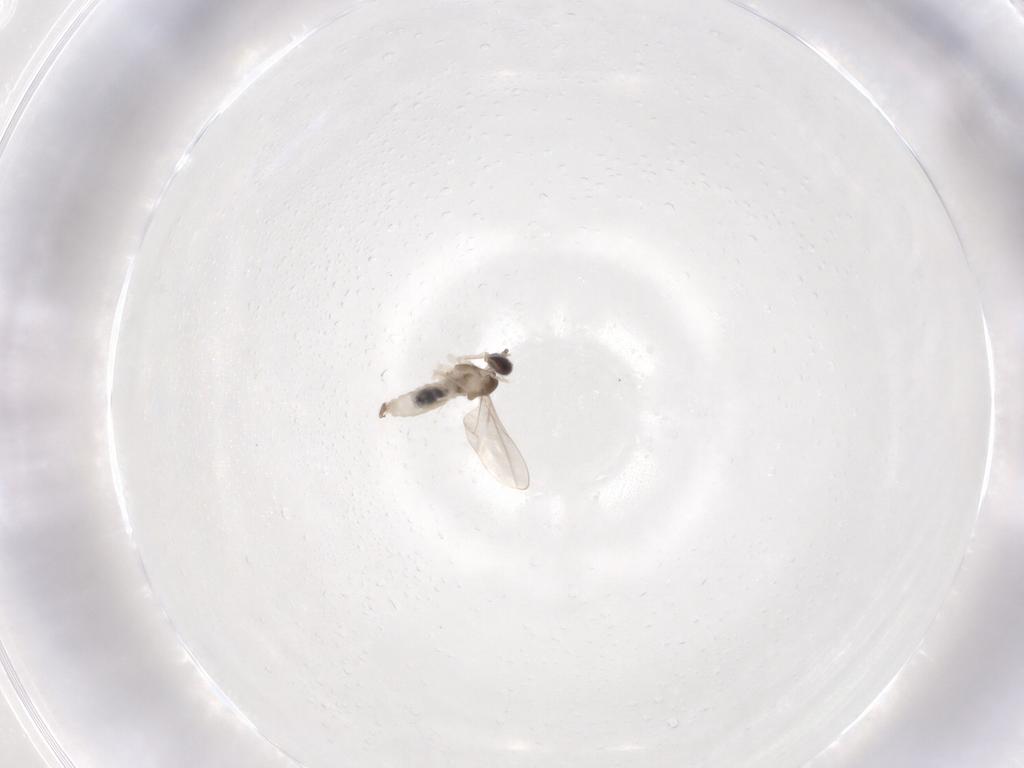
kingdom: Animalia
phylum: Arthropoda
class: Insecta
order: Diptera
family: Cecidomyiidae
